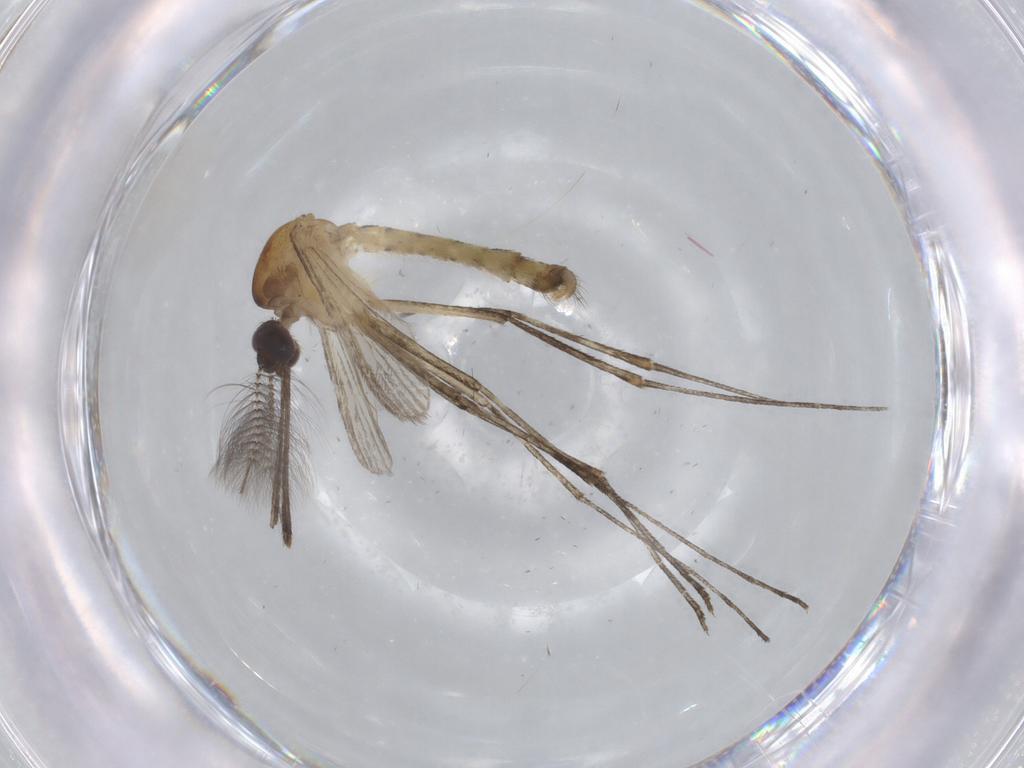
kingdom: Animalia
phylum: Arthropoda
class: Insecta
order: Diptera
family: Culicidae
